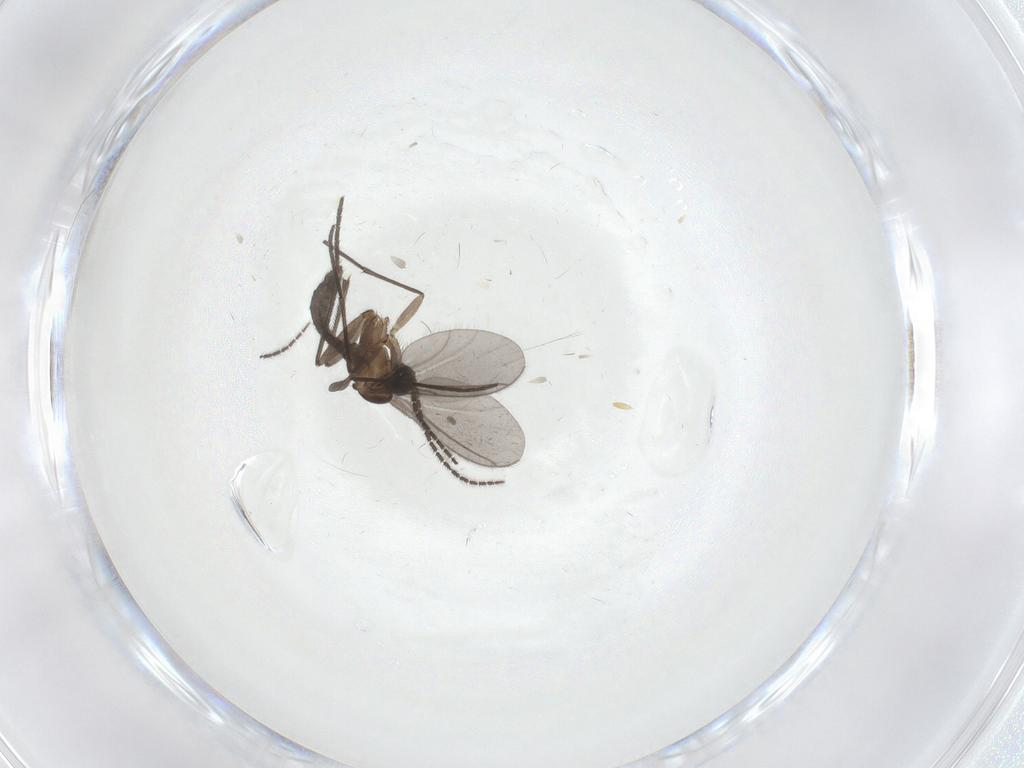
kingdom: Animalia
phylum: Arthropoda
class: Insecta
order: Diptera
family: Sciaridae
